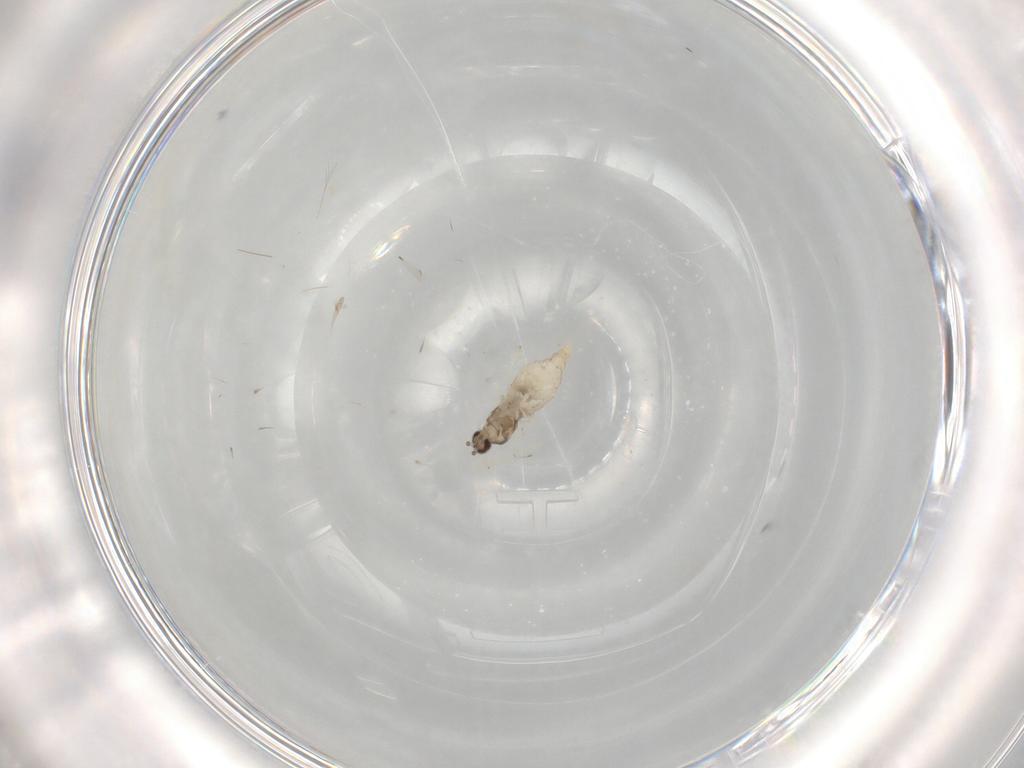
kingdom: Animalia
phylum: Arthropoda
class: Insecta
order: Diptera
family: Cecidomyiidae
